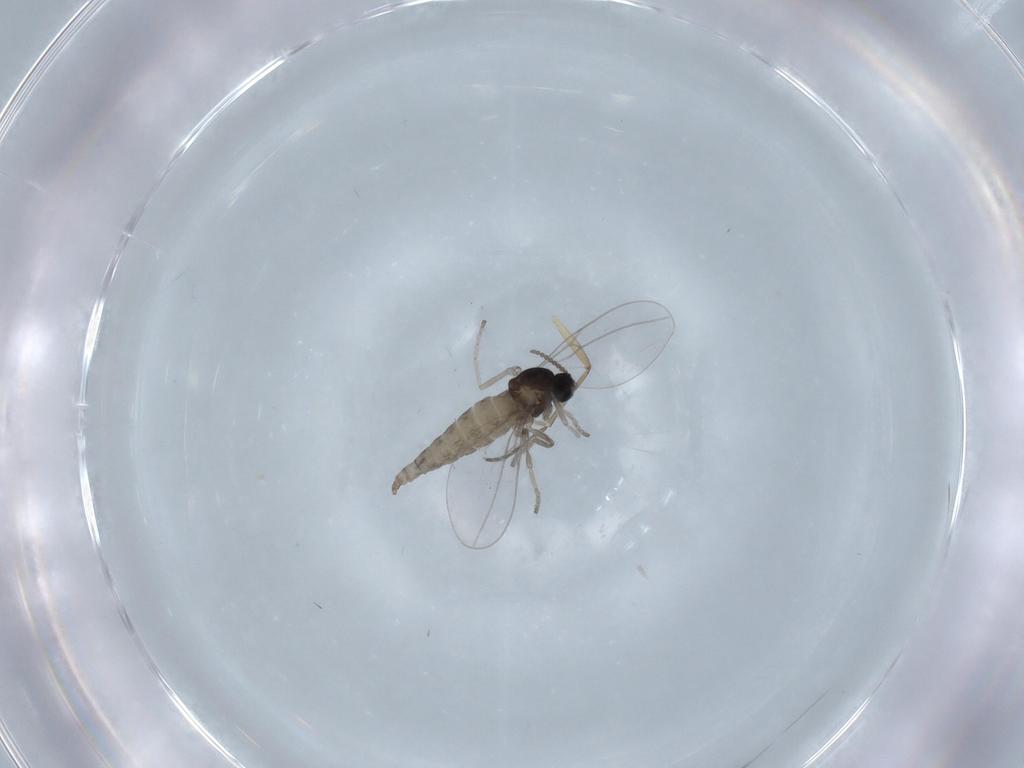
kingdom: Animalia
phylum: Arthropoda
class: Insecta
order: Diptera
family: Cecidomyiidae
